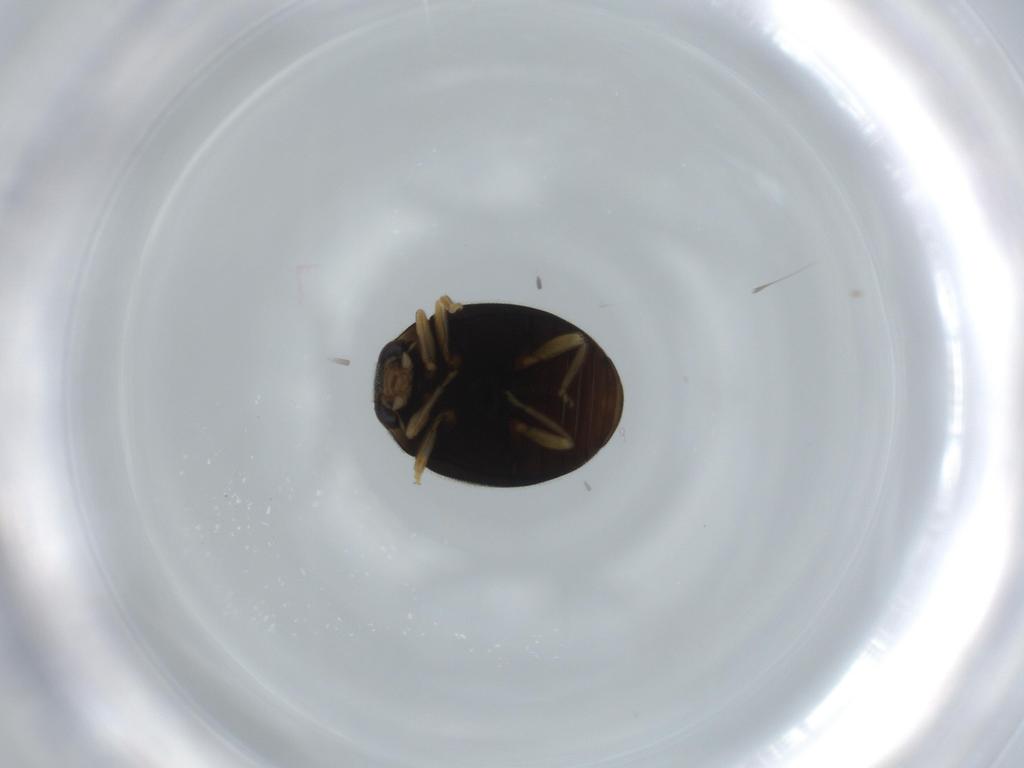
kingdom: Animalia
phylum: Arthropoda
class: Insecta
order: Coleoptera
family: Coccinellidae
